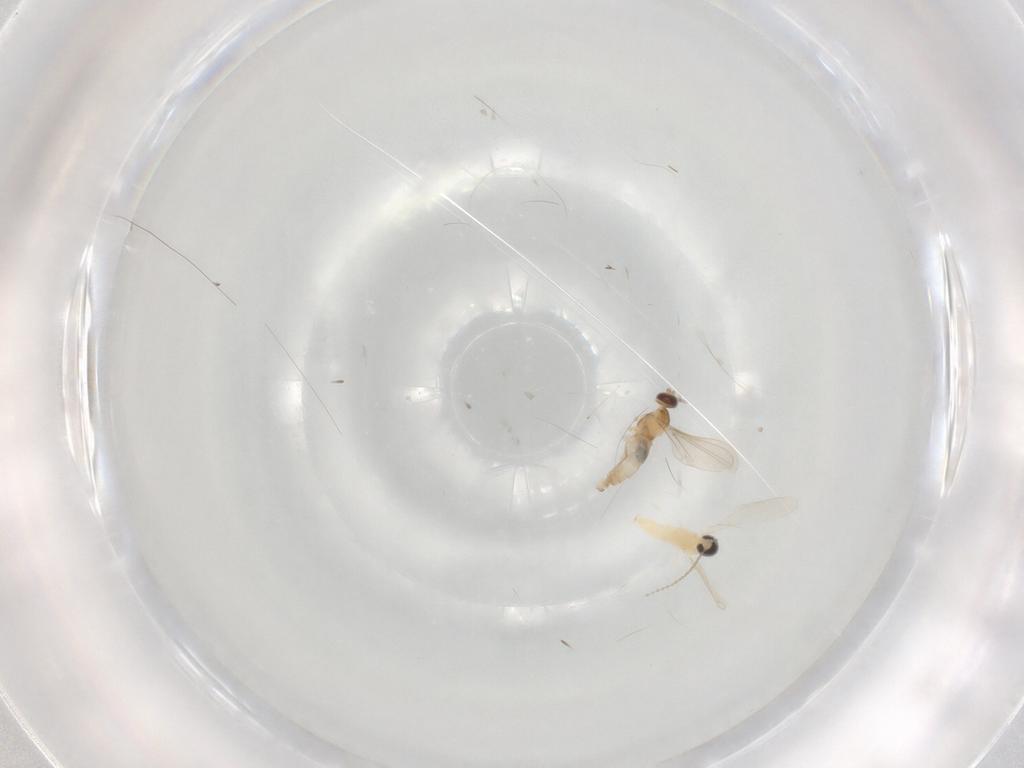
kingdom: Animalia
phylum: Arthropoda
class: Insecta
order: Diptera
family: Cecidomyiidae
